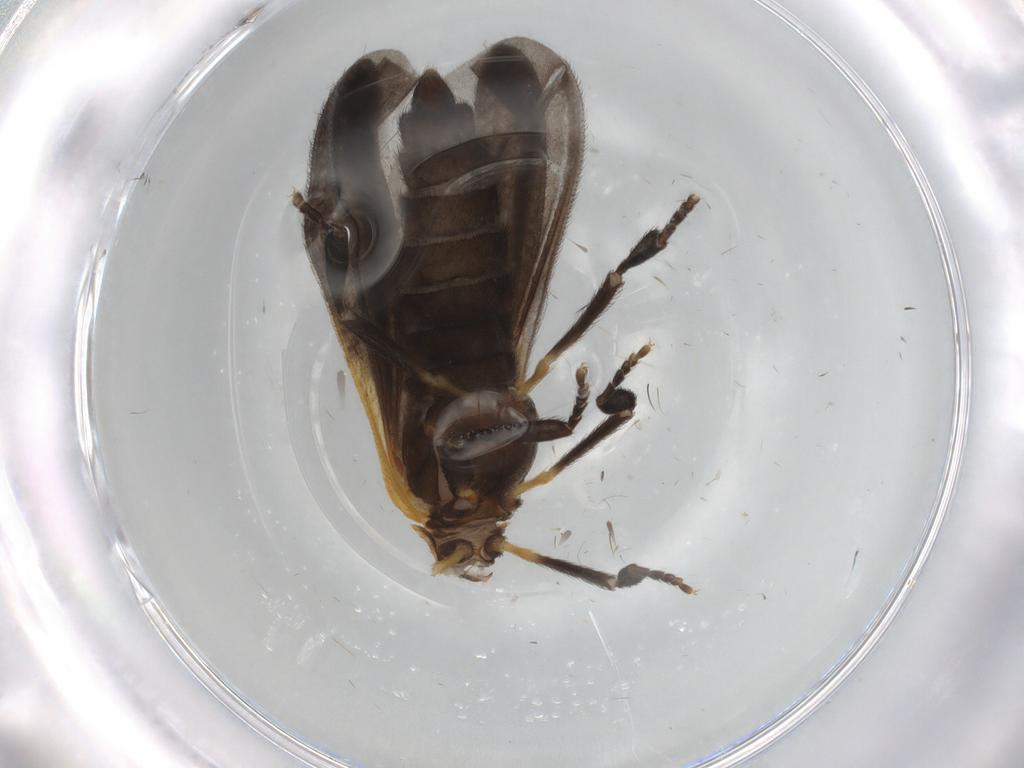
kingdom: Animalia
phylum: Arthropoda
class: Insecta
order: Coleoptera
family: Lycidae
